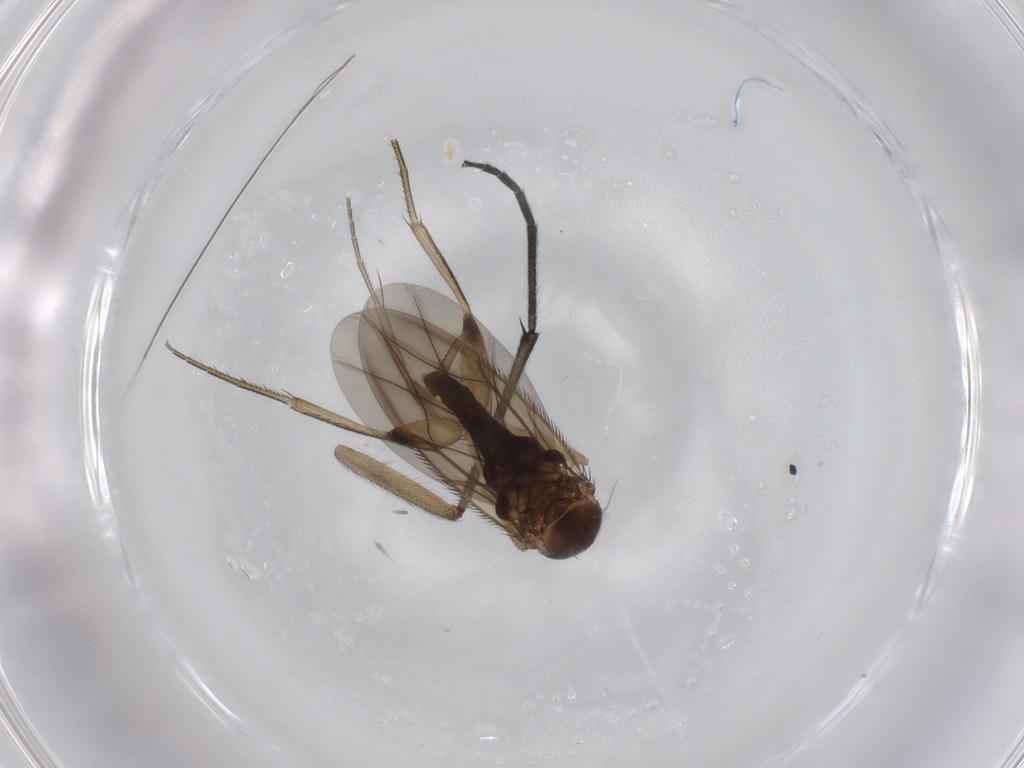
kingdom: Animalia
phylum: Arthropoda
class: Insecta
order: Diptera
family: Phoridae
